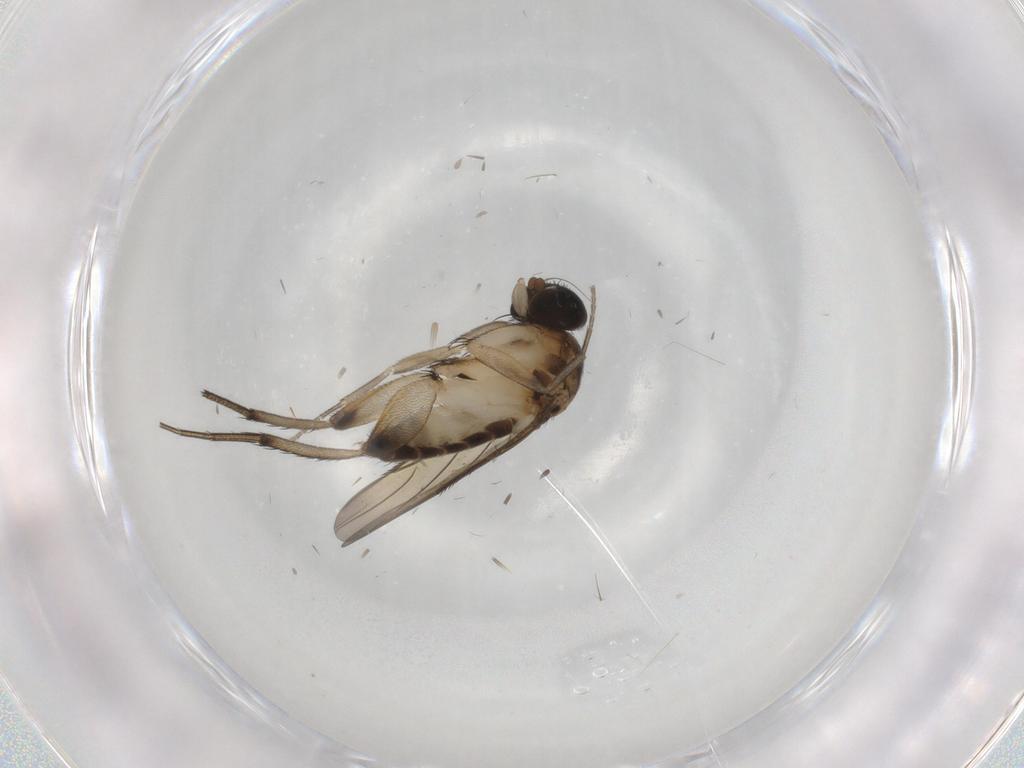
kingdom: Animalia
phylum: Arthropoda
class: Insecta
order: Diptera
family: Phoridae
